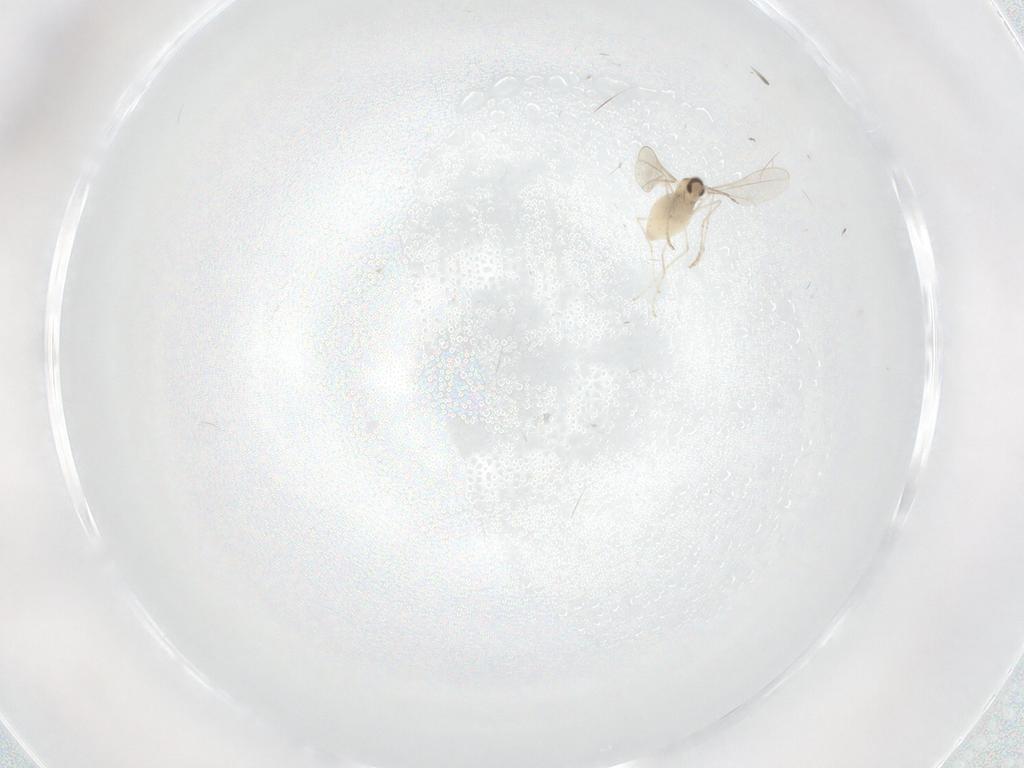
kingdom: Animalia
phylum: Arthropoda
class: Insecta
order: Diptera
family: Cecidomyiidae
